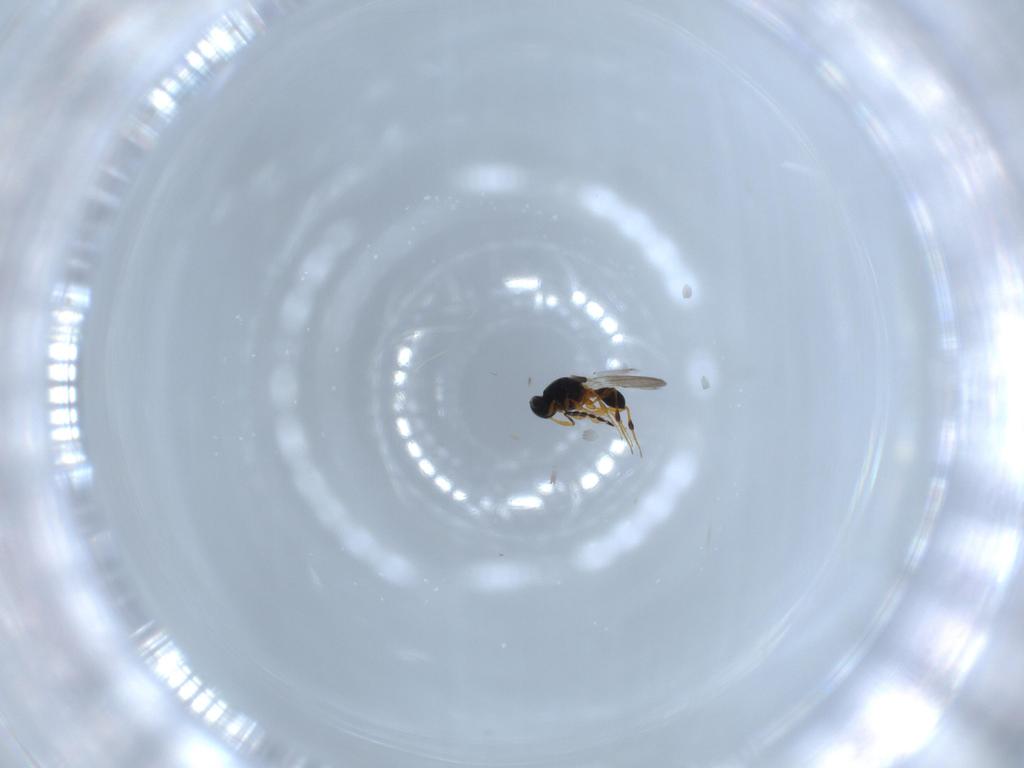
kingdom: Animalia
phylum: Arthropoda
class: Insecta
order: Hymenoptera
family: Platygastridae
